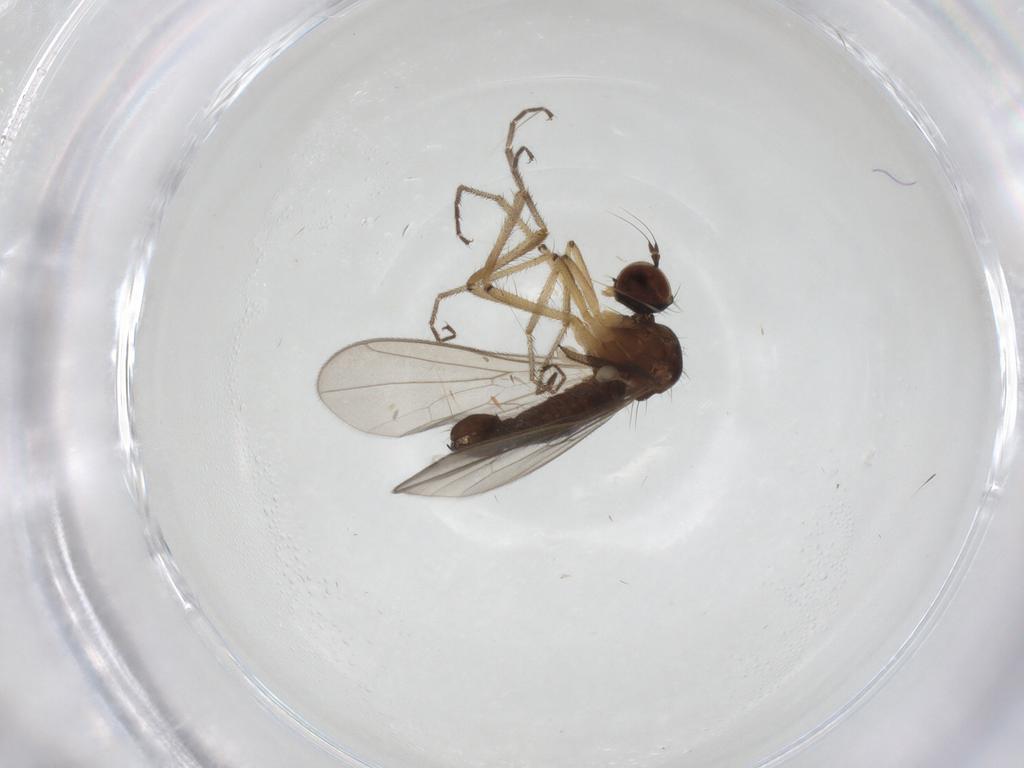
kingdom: Animalia
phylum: Arthropoda
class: Insecta
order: Diptera
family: Hybotidae
